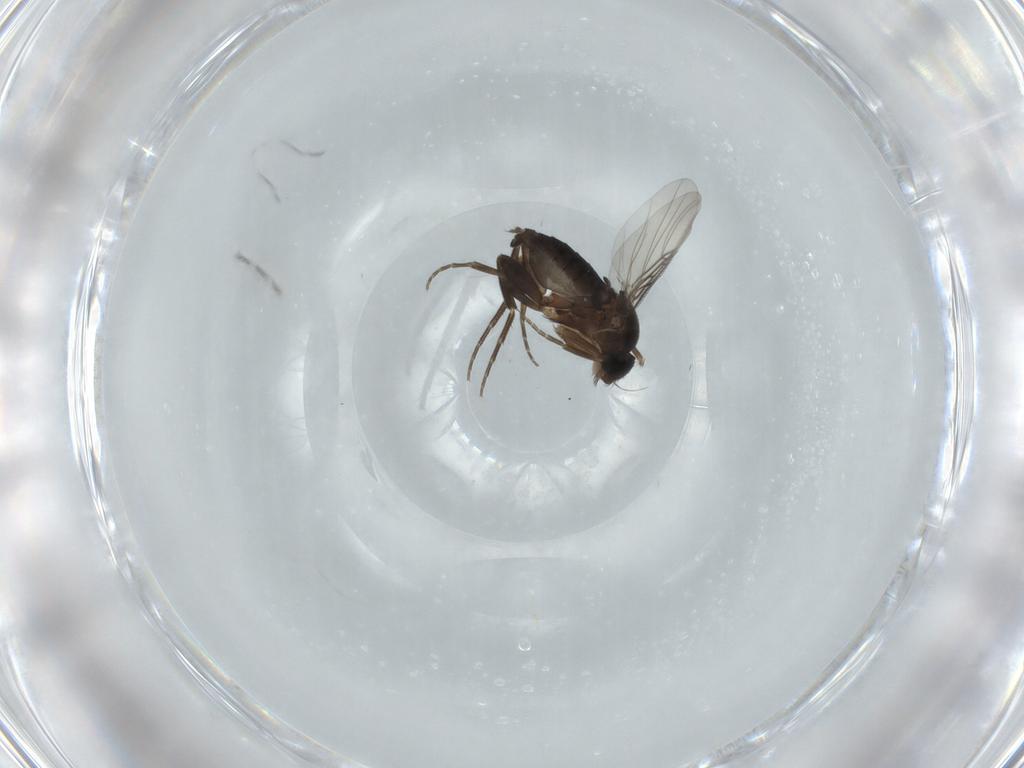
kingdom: Animalia
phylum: Arthropoda
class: Insecta
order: Diptera
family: Phoridae
